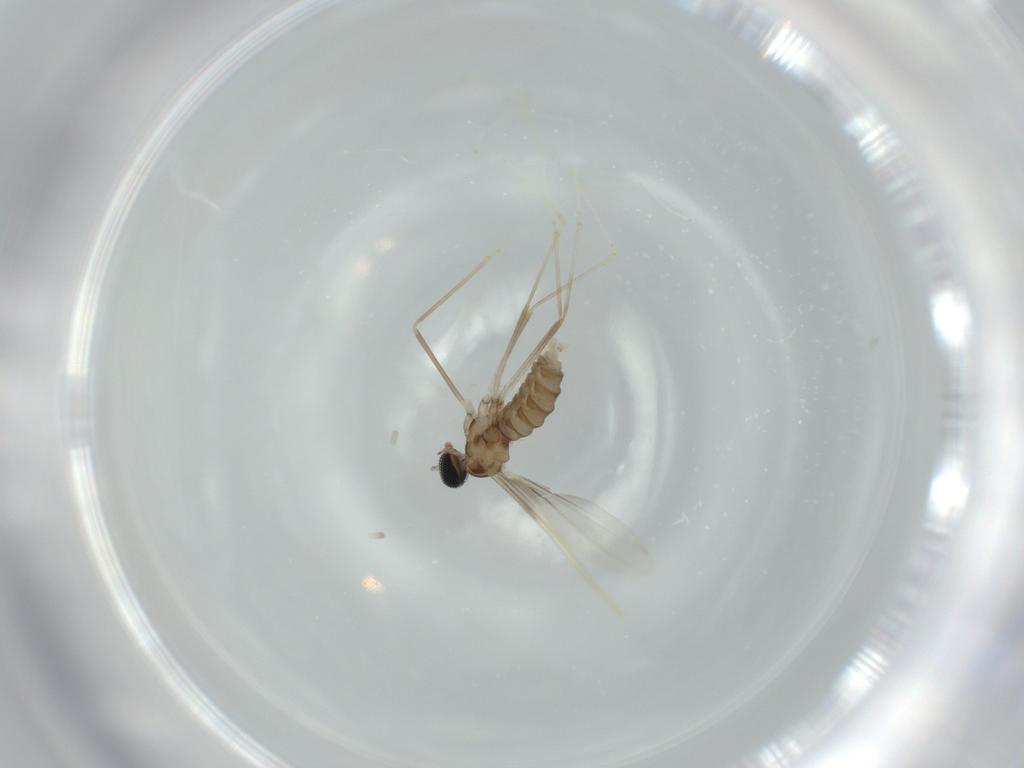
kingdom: Animalia
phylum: Arthropoda
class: Insecta
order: Diptera
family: Cecidomyiidae
